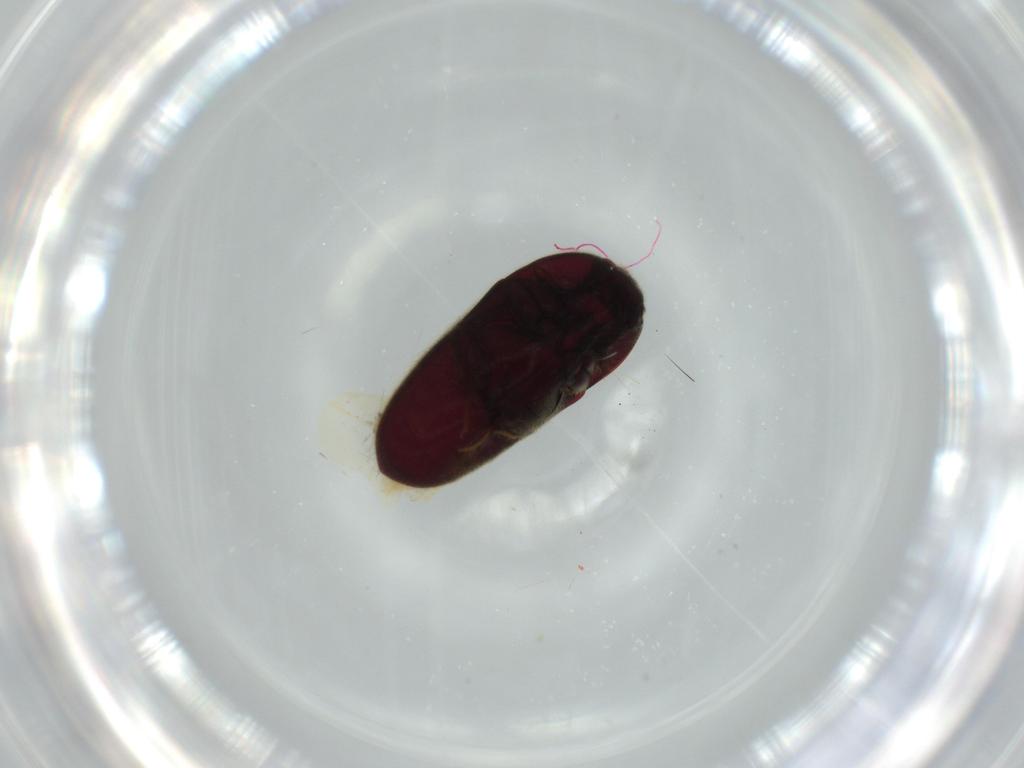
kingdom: Animalia
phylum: Arthropoda
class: Insecta
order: Coleoptera
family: Throscidae
